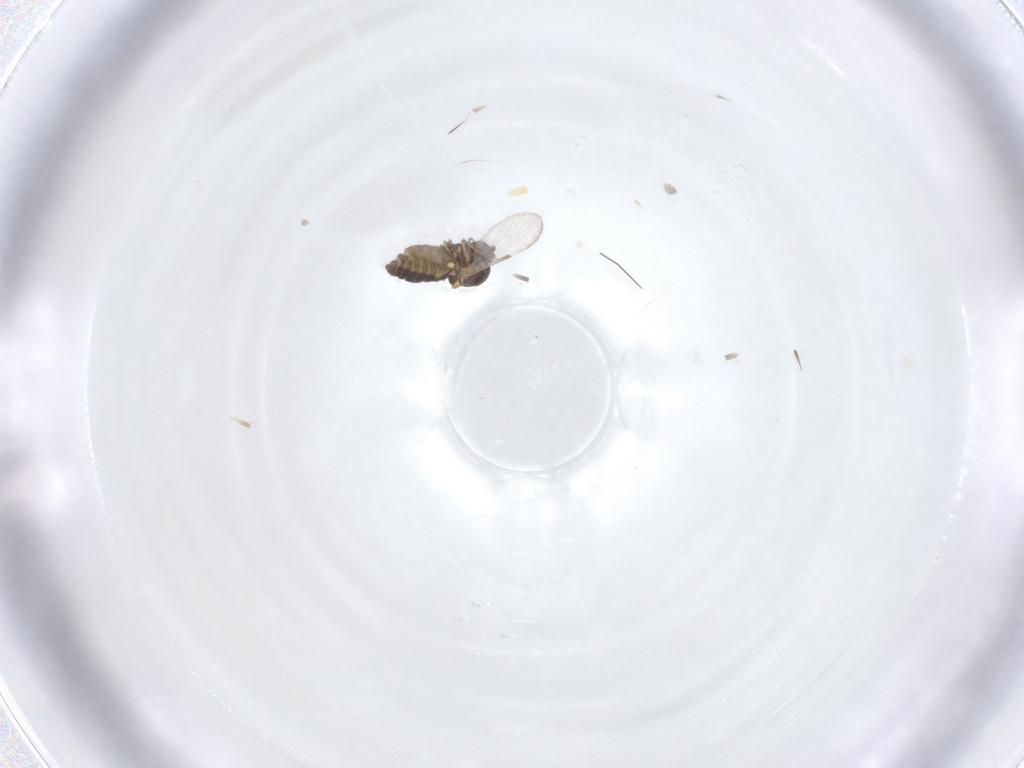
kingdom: Animalia
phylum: Arthropoda
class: Insecta
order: Diptera
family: Ceratopogonidae
